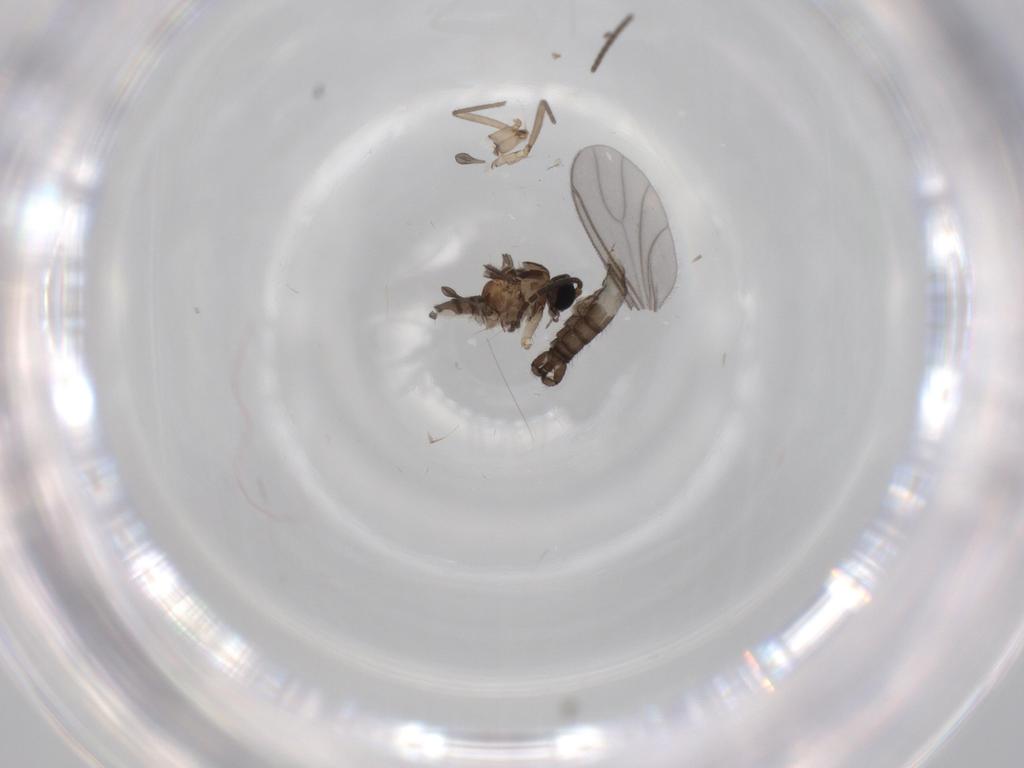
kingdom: Animalia
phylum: Arthropoda
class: Insecta
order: Diptera
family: Sciaridae
